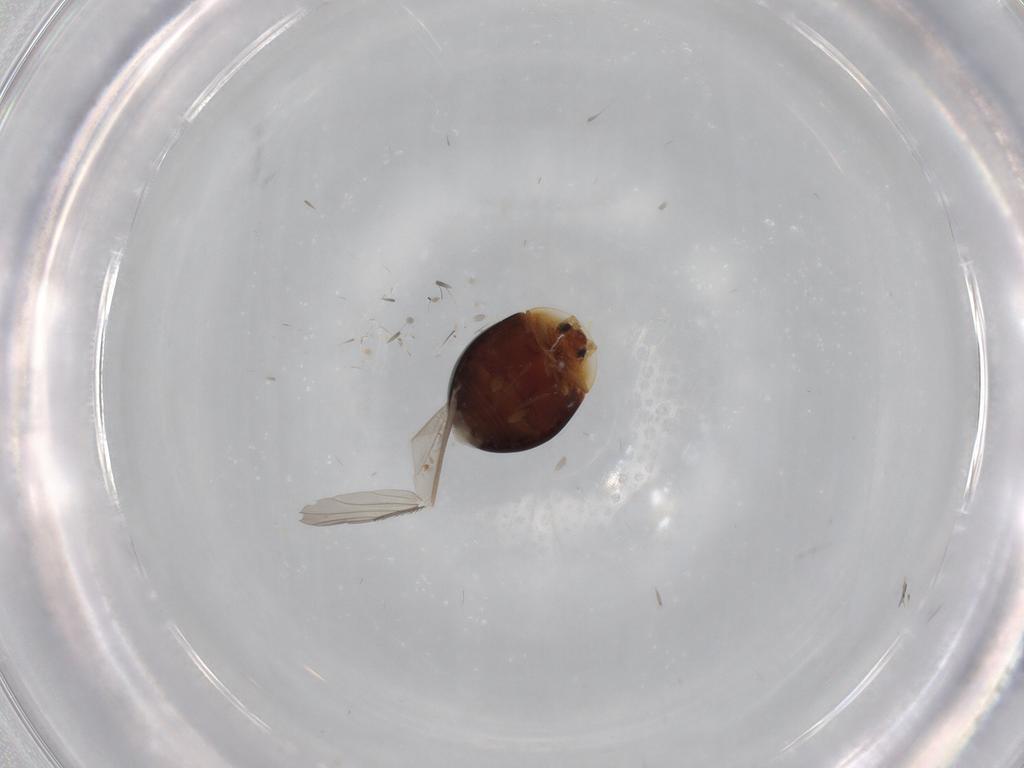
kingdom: Animalia
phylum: Arthropoda
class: Insecta
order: Coleoptera
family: Corylophidae
